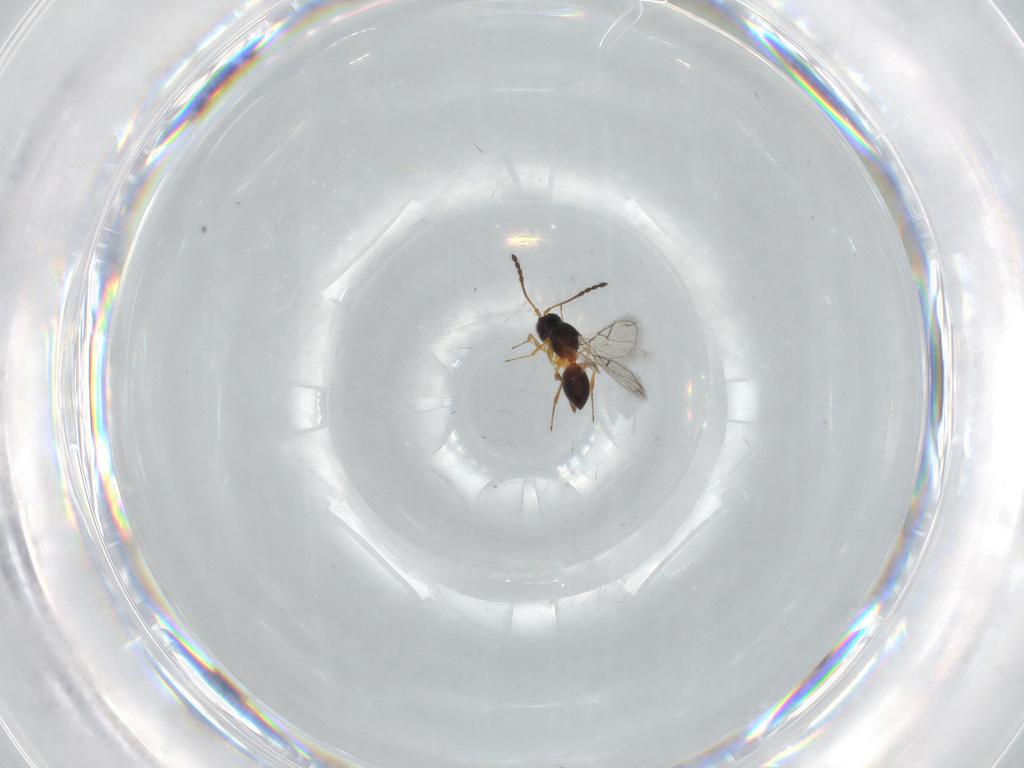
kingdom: Animalia
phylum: Arthropoda
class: Insecta
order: Hymenoptera
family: Figitidae
